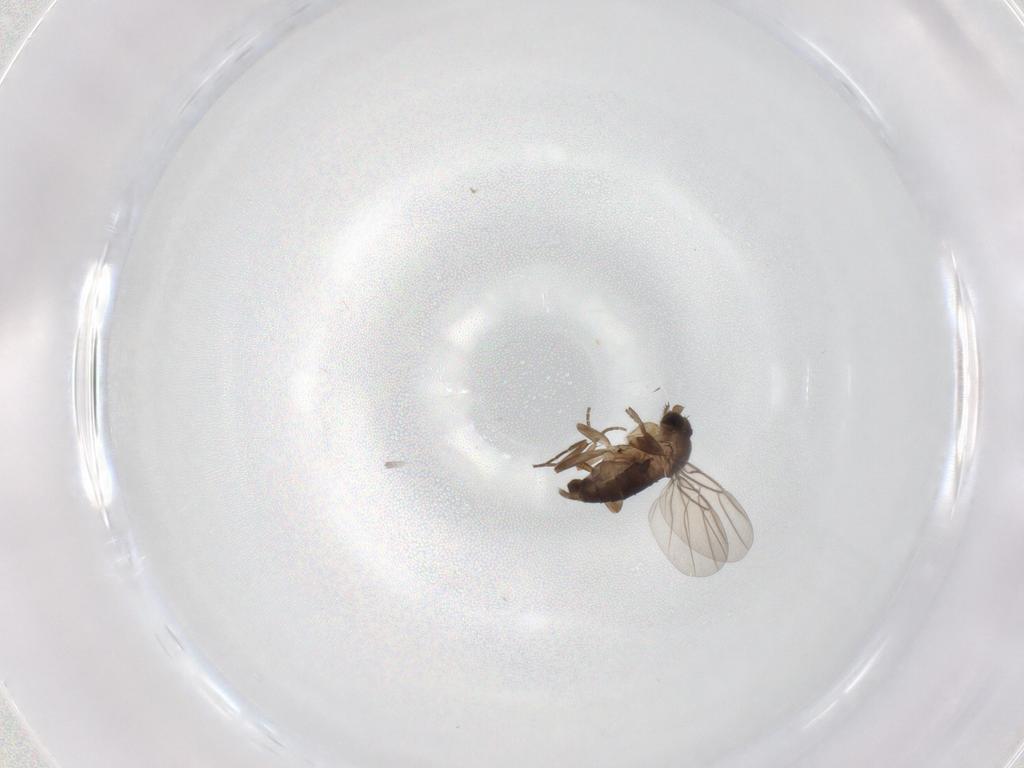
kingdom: Animalia
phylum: Arthropoda
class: Insecta
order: Diptera
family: Phoridae
